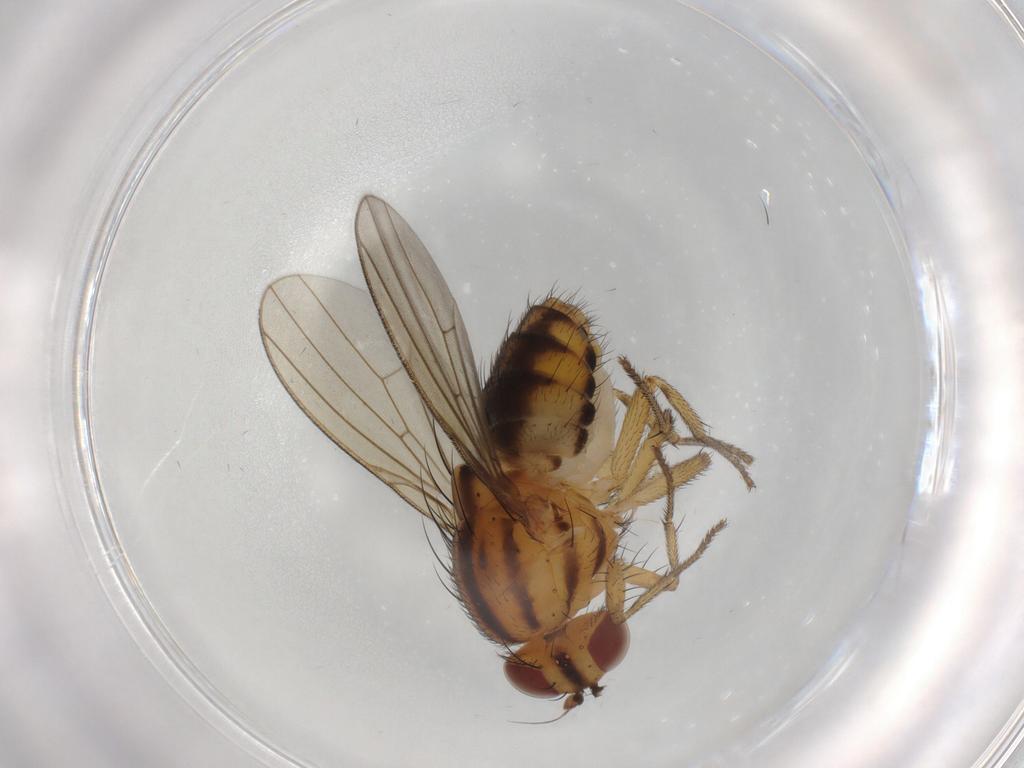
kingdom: Animalia
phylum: Arthropoda
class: Insecta
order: Diptera
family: Chironomidae
